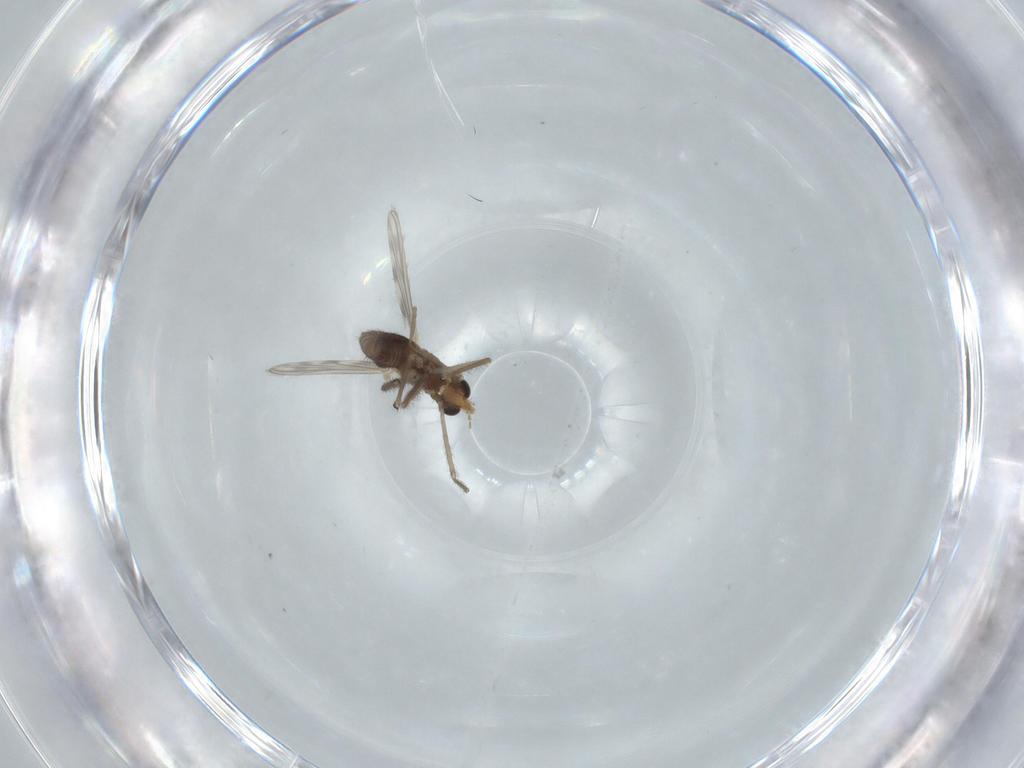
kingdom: Animalia
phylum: Arthropoda
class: Insecta
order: Diptera
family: Chironomidae
